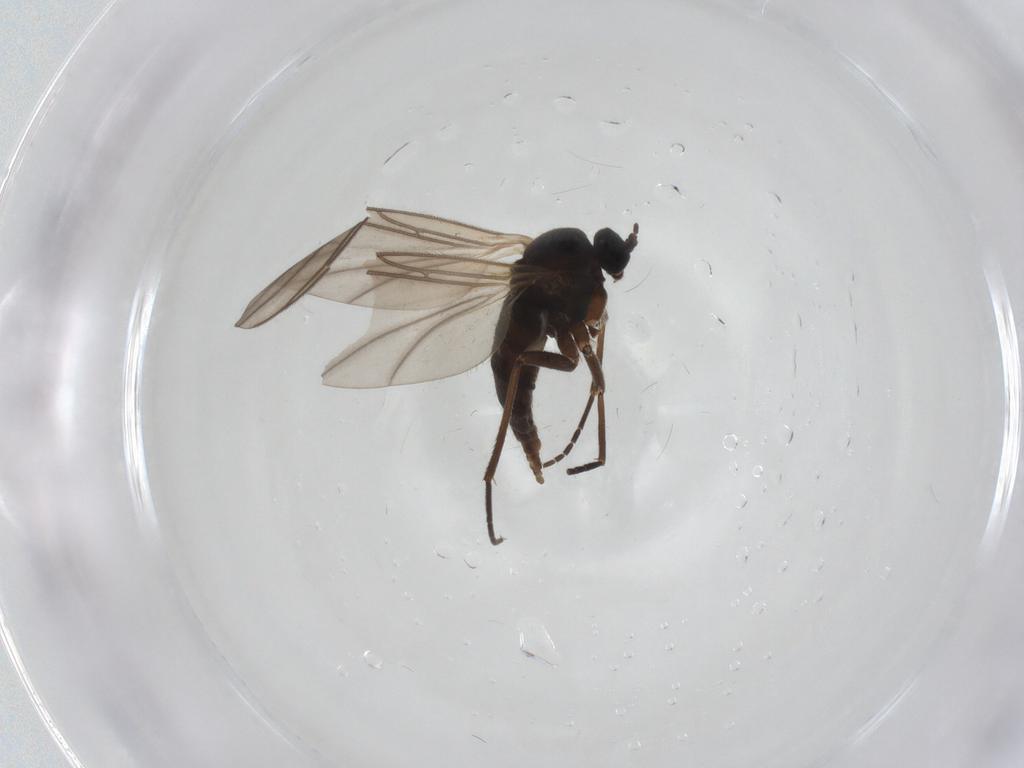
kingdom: Animalia
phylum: Arthropoda
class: Insecta
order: Diptera
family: Sciaridae
